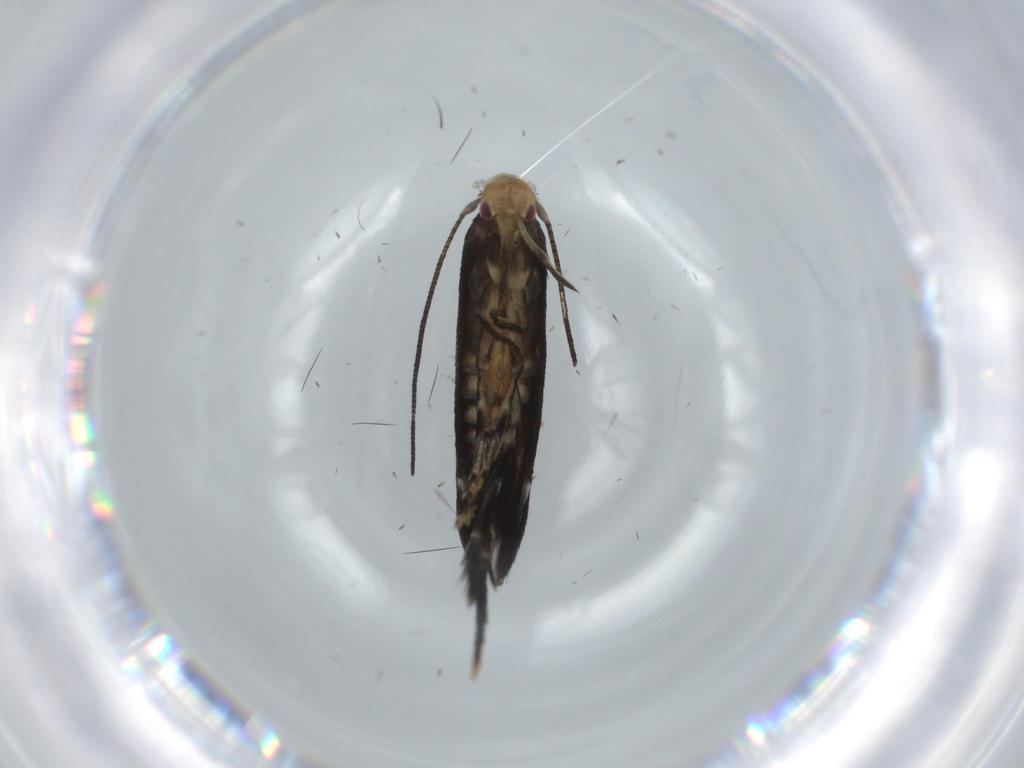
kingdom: Animalia
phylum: Arthropoda
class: Insecta
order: Lepidoptera
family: Momphidae
